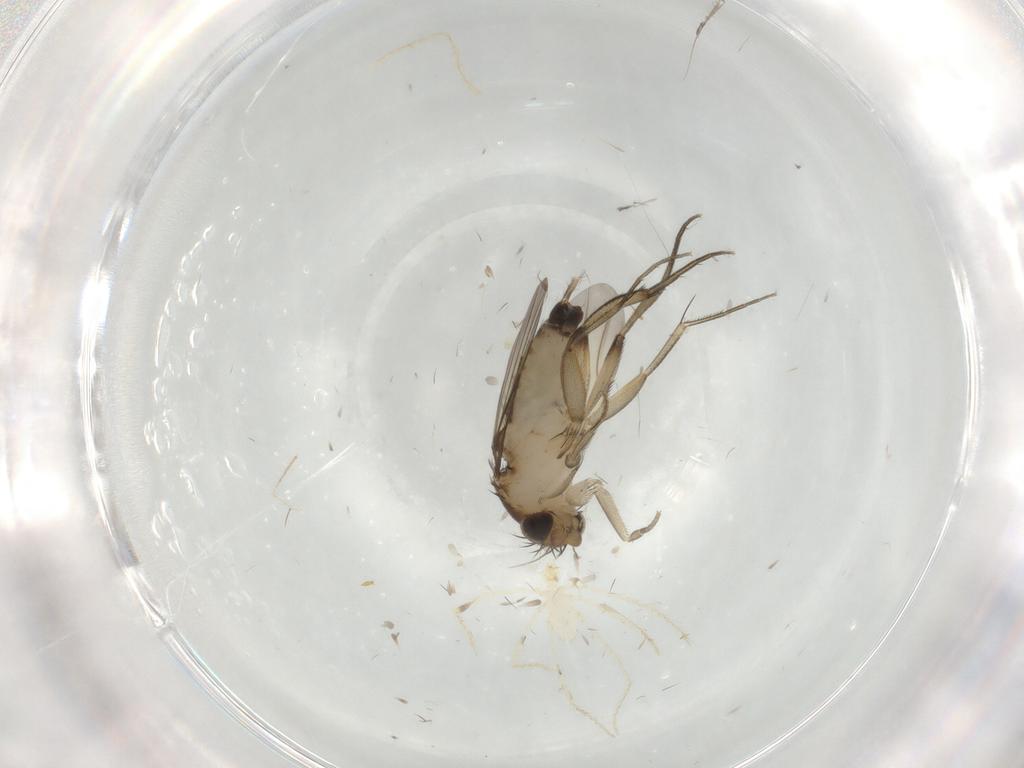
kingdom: Animalia
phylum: Arthropoda
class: Insecta
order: Diptera
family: Phoridae
